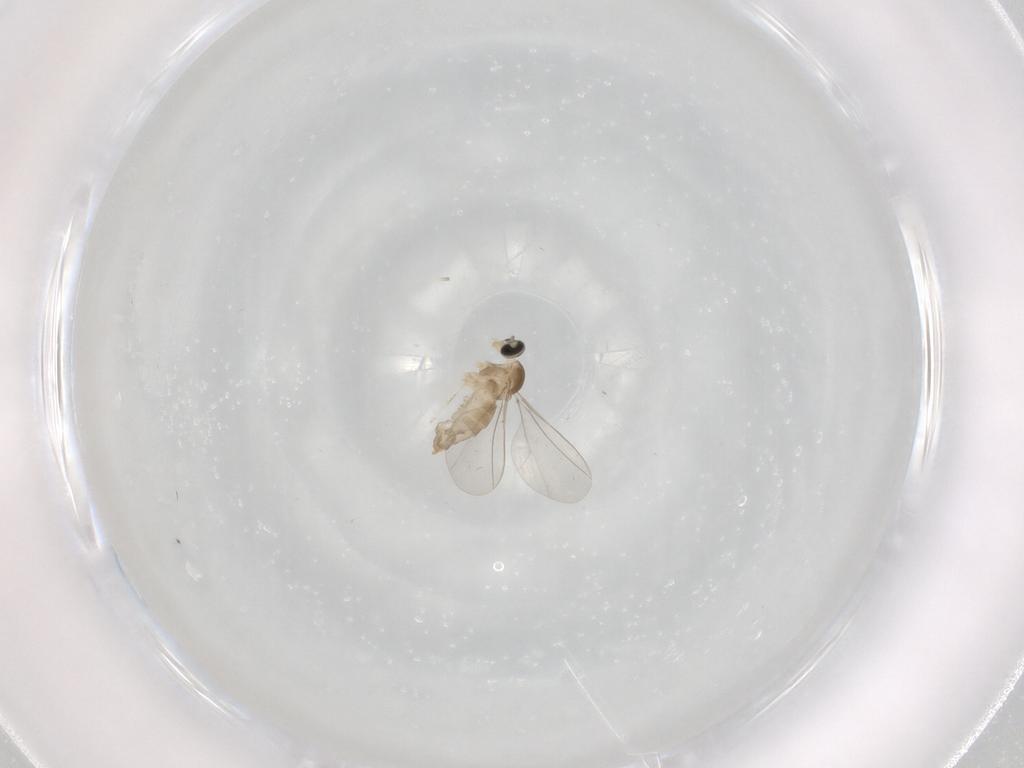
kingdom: Animalia
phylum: Arthropoda
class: Insecta
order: Diptera
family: Cecidomyiidae
